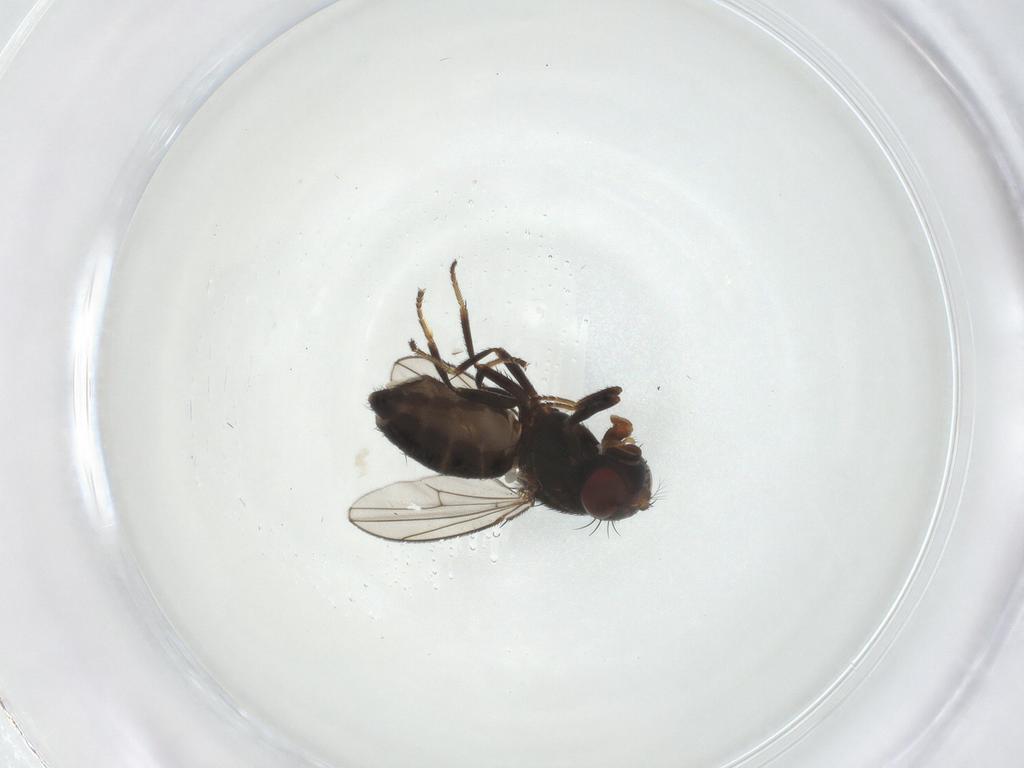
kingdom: Animalia
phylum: Arthropoda
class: Insecta
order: Diptera
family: Ephydridae
